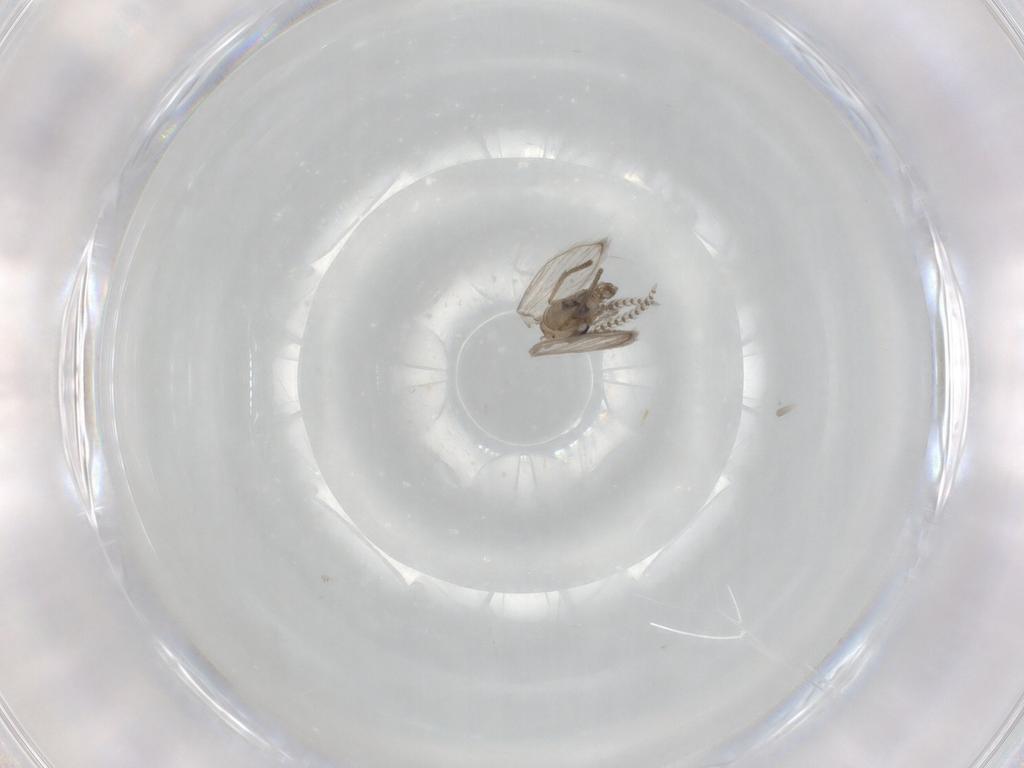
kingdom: Animalia
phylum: Arthropoda
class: Insecta
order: Diptera
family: Psychodidae
